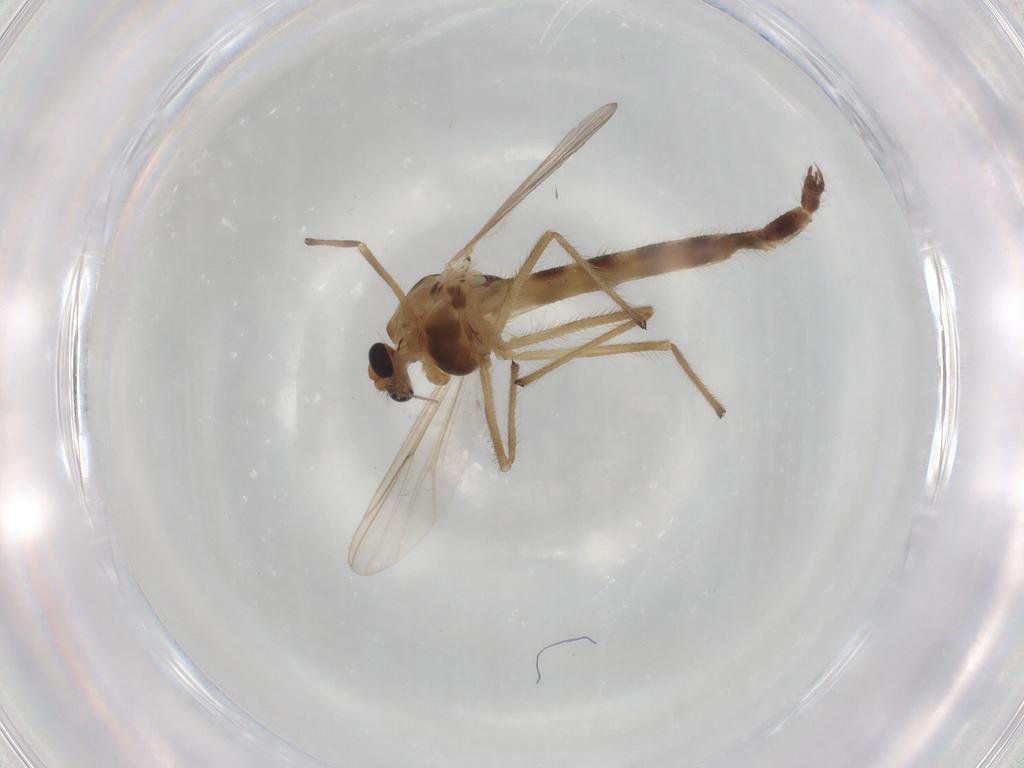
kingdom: Animalia
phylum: Arthropoda
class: Insecta
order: Diptera
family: Chironomidae
